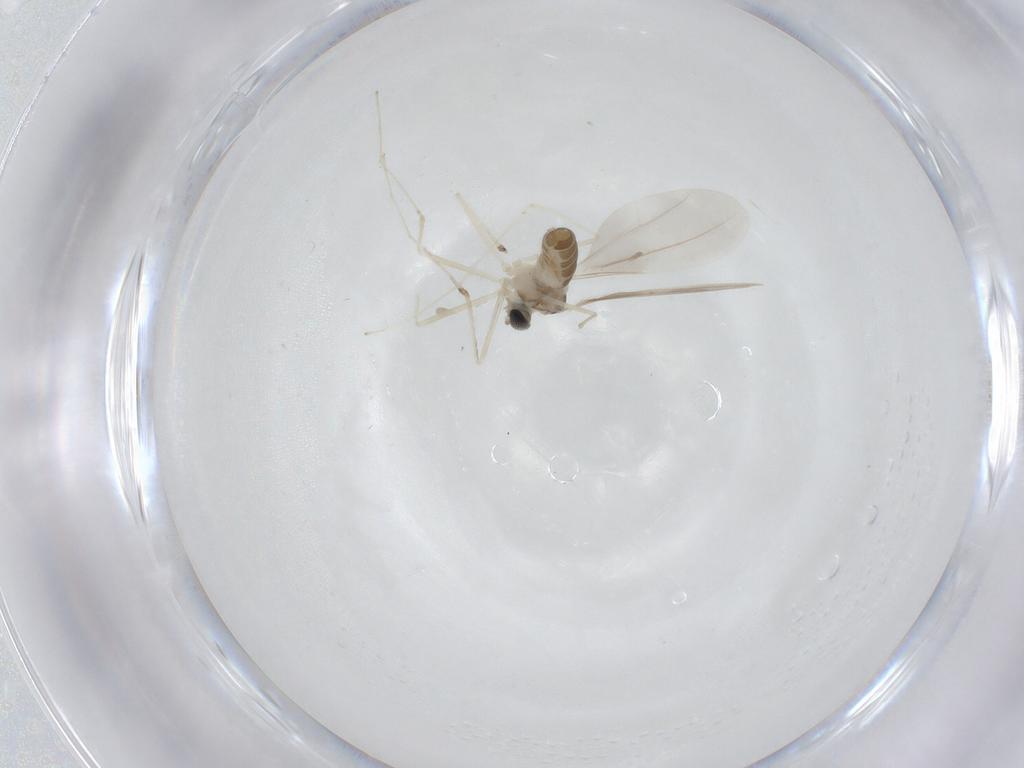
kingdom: Animalia
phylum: Arthropoda
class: Insecta
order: Diptera
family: Cecidomyiidae
